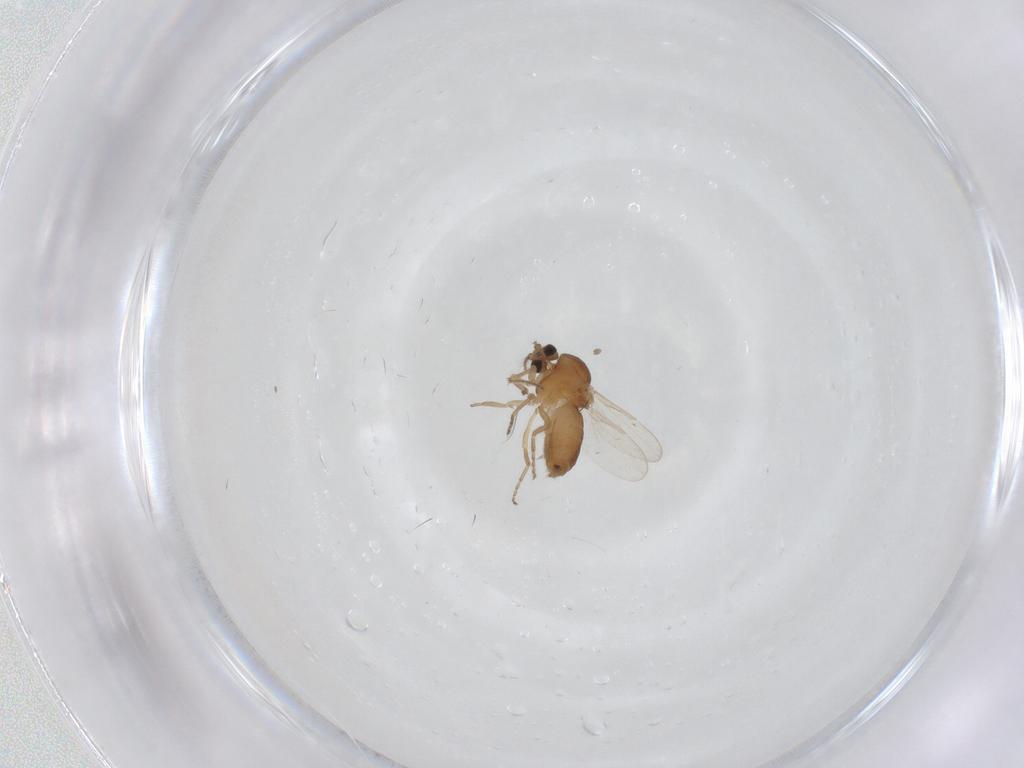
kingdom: Animalia
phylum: Arthropoda
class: Insecta
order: Diptera
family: Ceratopogonidae
